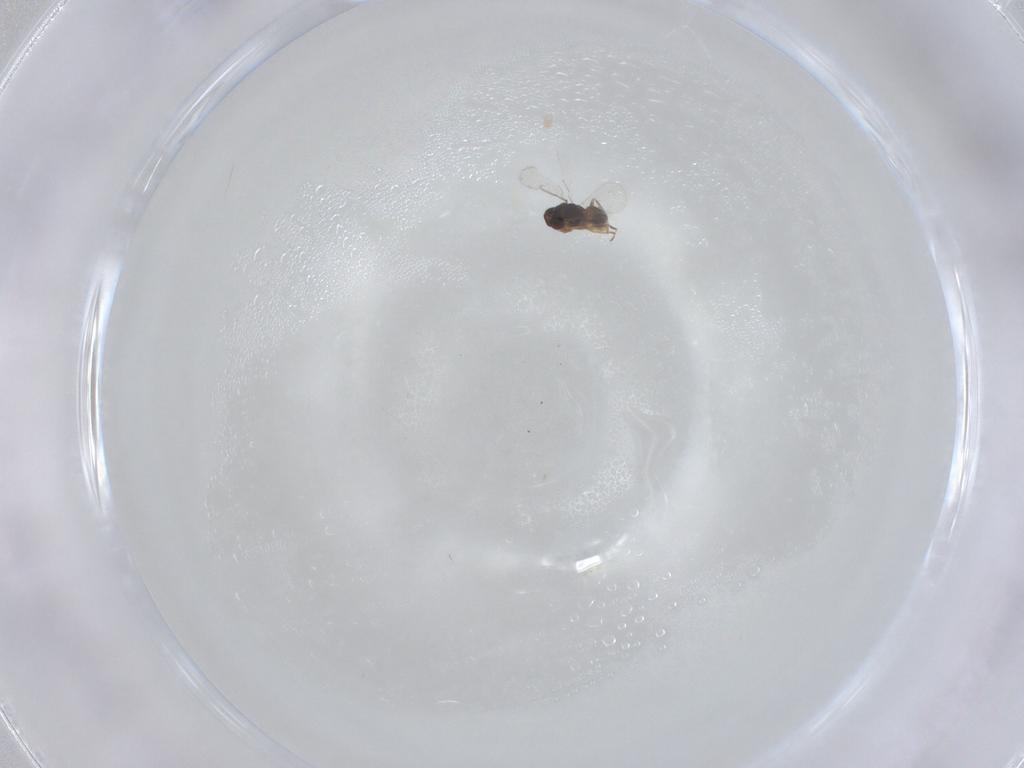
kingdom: Animalia
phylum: Arthropoda
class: Insecta
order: Hymenoptera
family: Eulophidae
